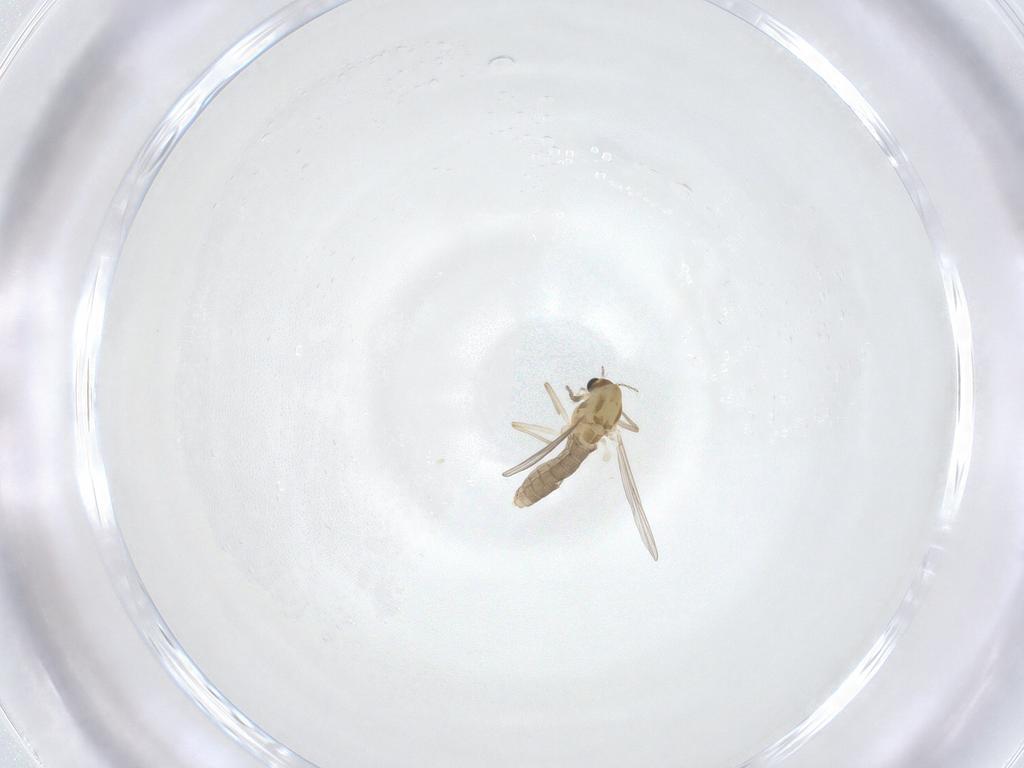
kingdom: Animalia
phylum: Arthropoda
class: Insecta
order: Diptera
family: Chironomidae
